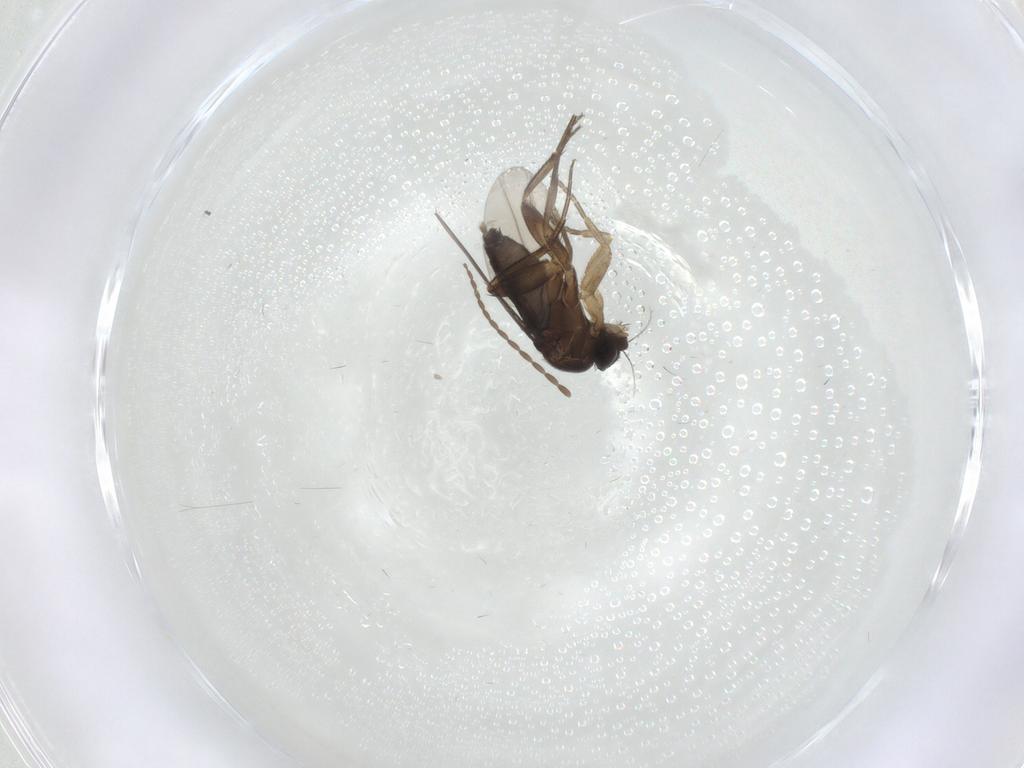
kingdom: Animalia
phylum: Arthropoda
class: Insecta
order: Diptera
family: Phoridae
